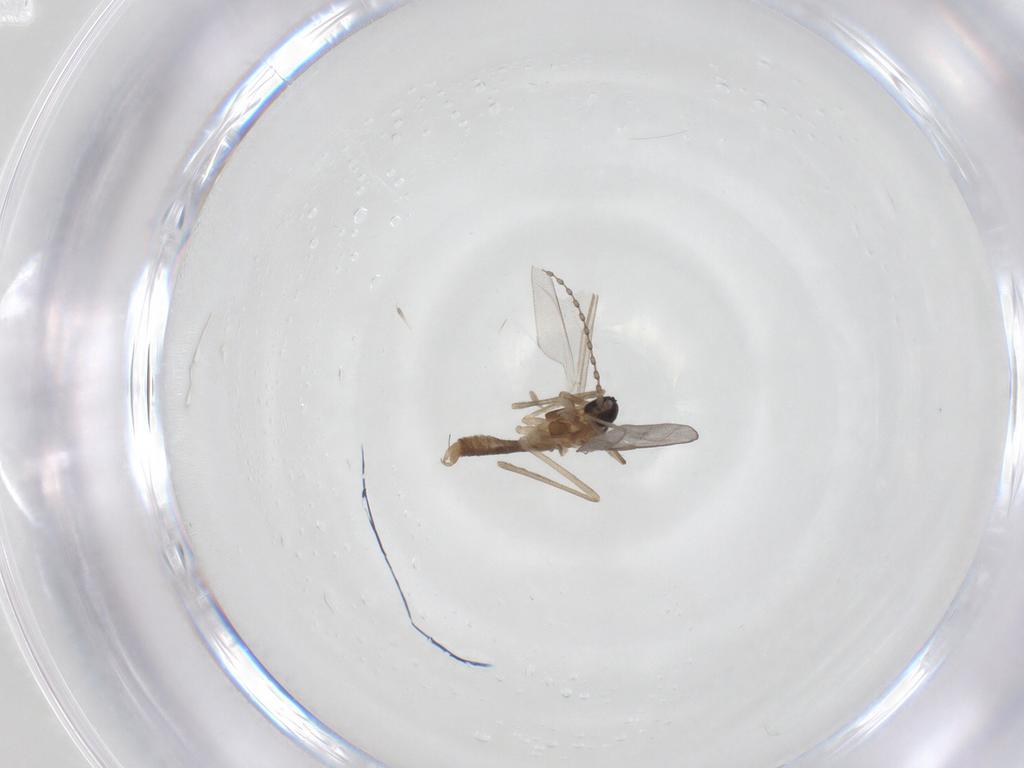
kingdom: Animalia
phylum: Arthropoda
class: Insecta
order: Diptera
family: Cecidomyiidae
